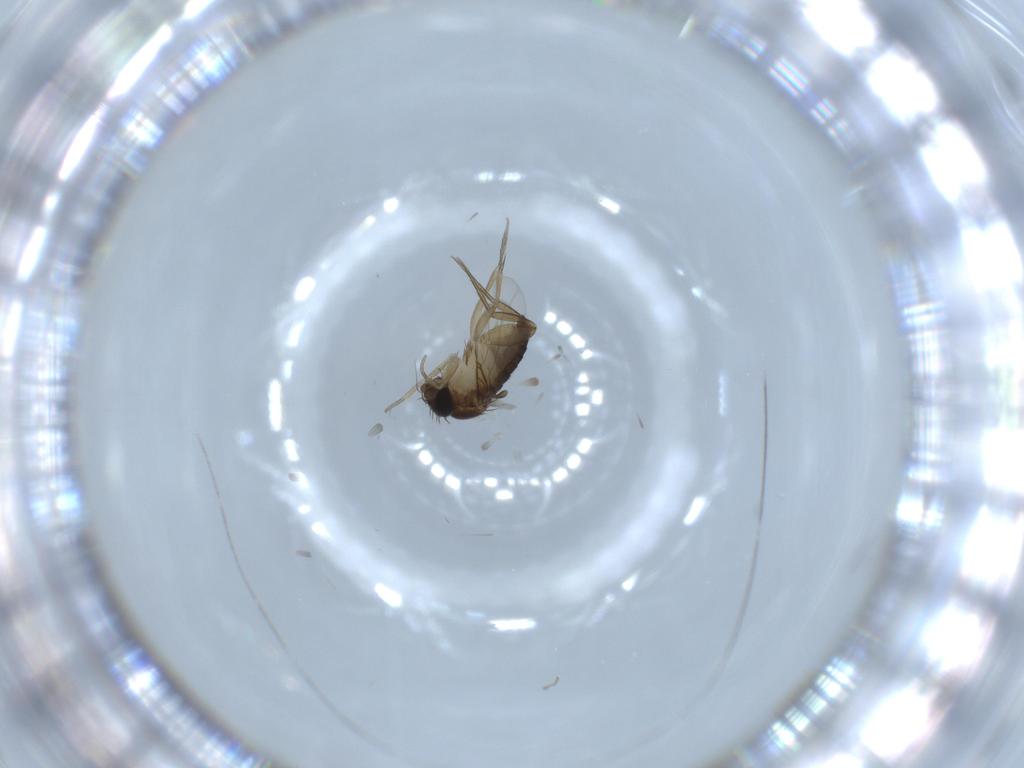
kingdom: Animalia
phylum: Arthropoda
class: Insecta
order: Diptera
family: Phoridae
